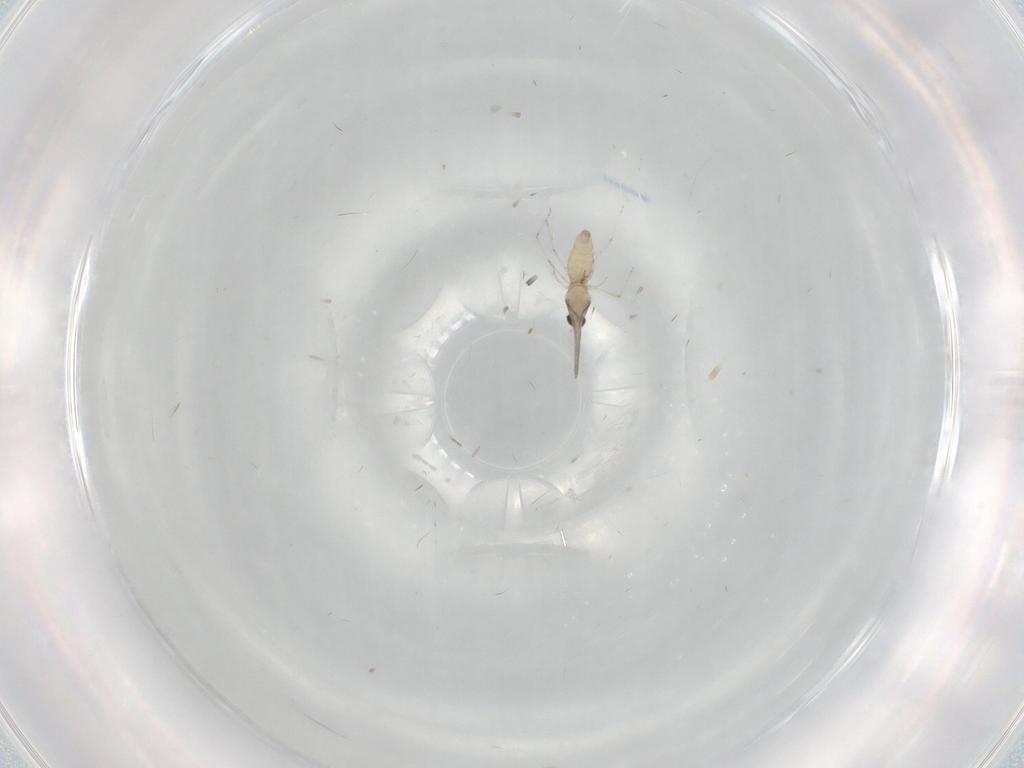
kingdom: Animalia
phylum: Arthropoda
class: Insecta
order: Diptera
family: Cecidomyiidae
